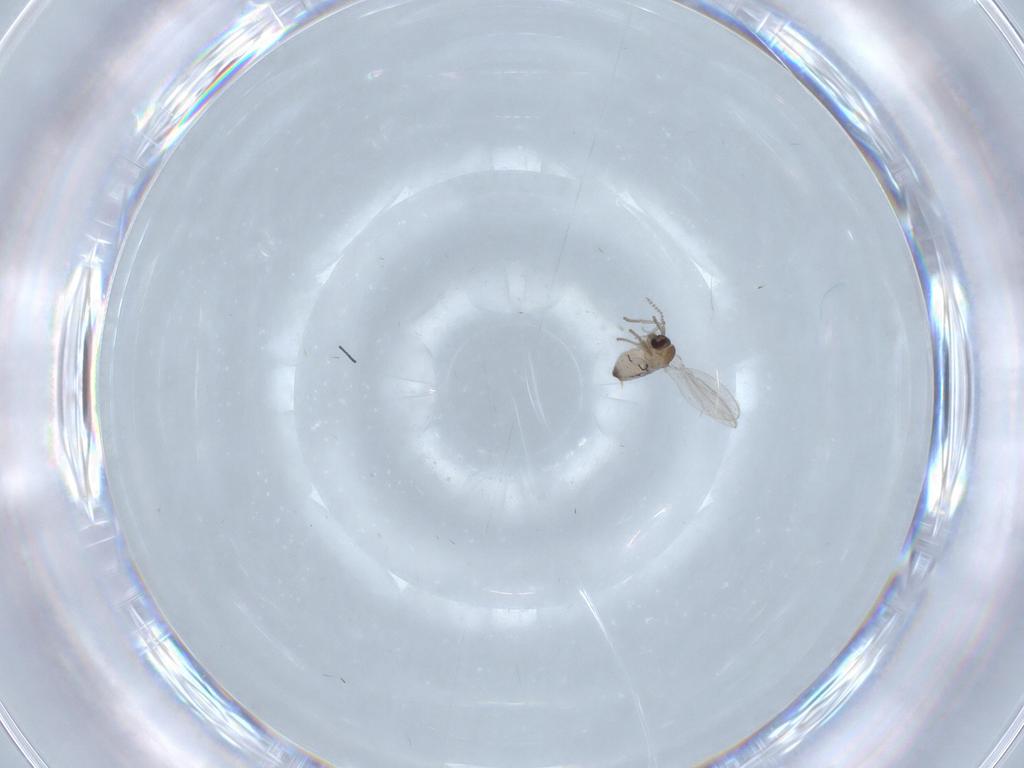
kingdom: Animalia
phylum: Arthropoda
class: Insecta
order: Diptera
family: Psychodidae
